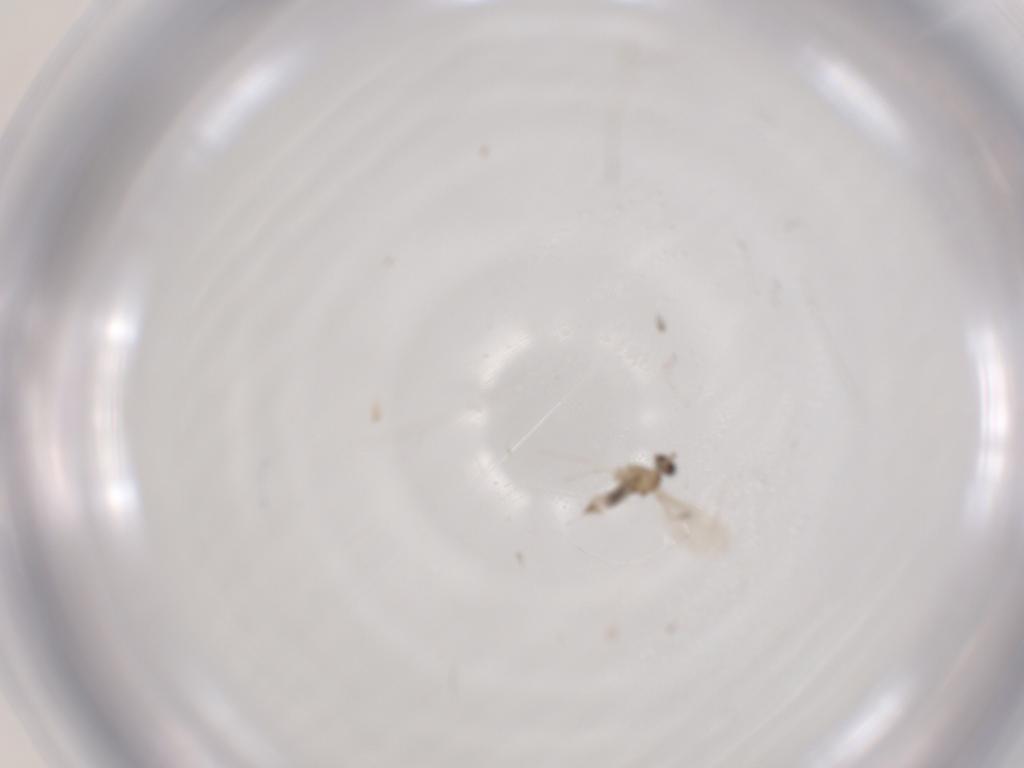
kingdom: Animalia
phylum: Arthropoda
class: Insecta
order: Diptera
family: Cecidomyiidae
